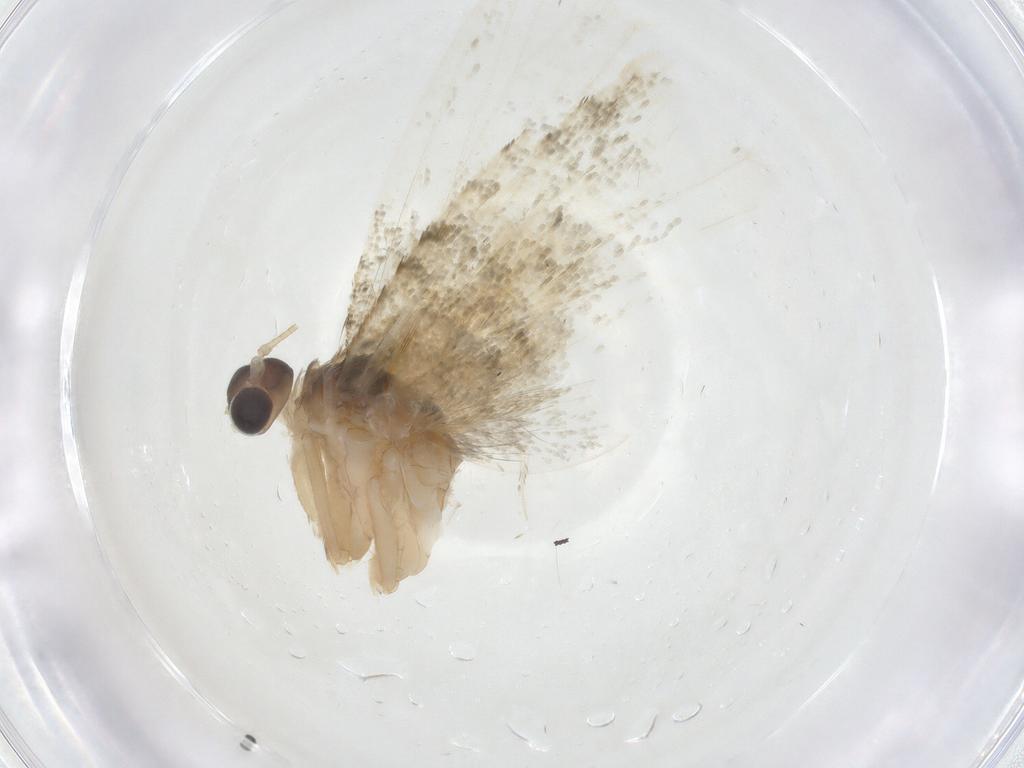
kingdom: Animalia
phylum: Arthropoda
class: Insecta
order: Lepidoptera
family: Tortricidae
